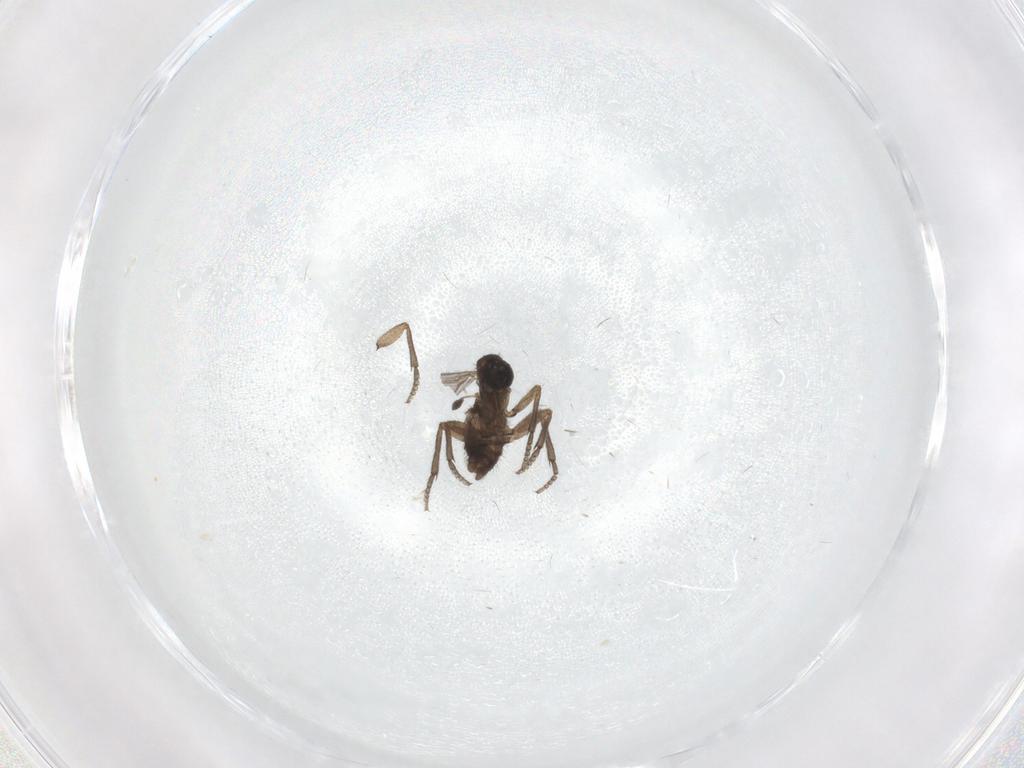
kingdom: Animalia
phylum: Arthropoda
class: Insecta
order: Diptera
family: Sciaridae
